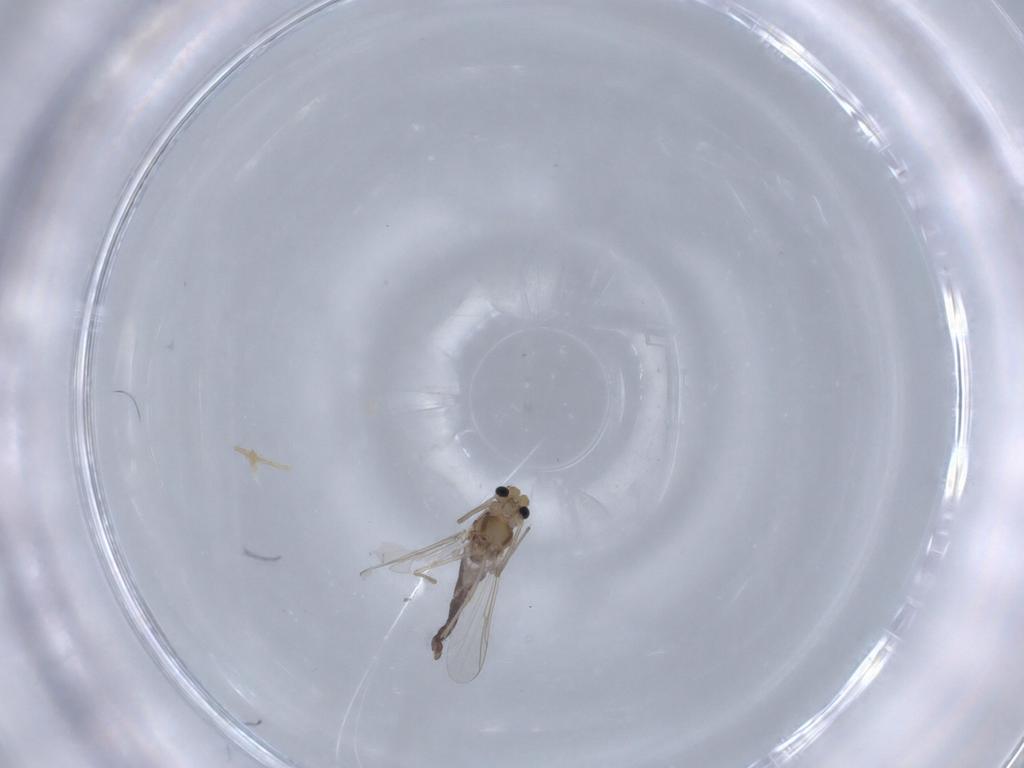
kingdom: Animalia
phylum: Arthropoda
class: Insecta
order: Diptera
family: Chironomidae
